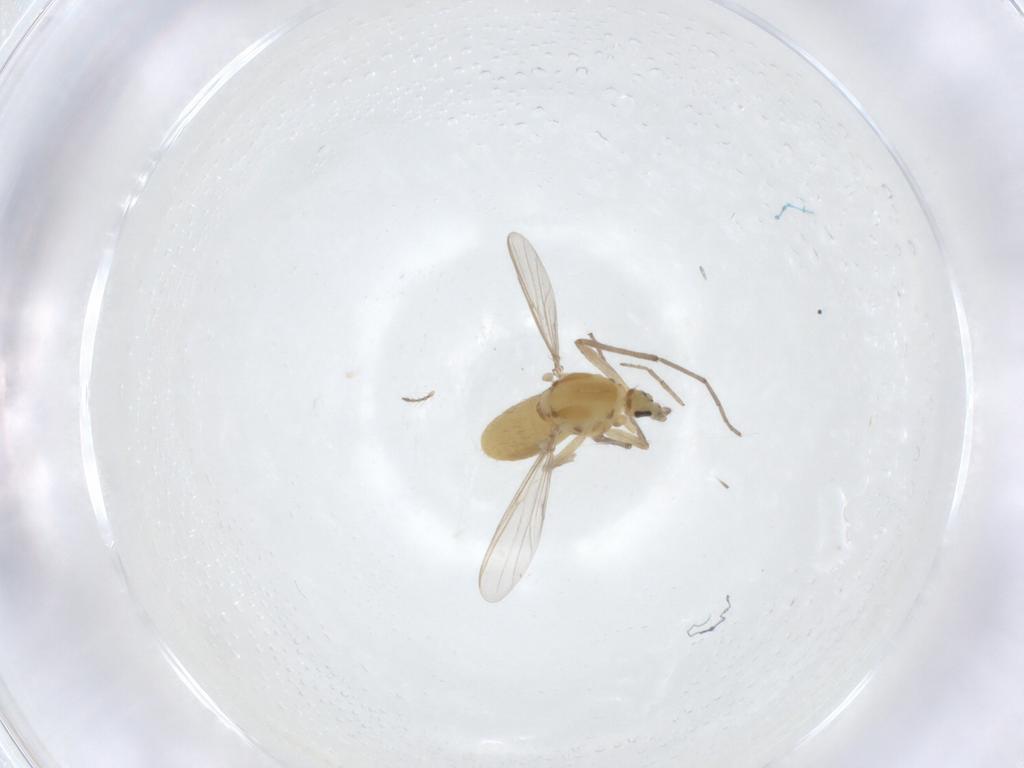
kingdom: Animalia
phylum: Arthropoda
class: Insecta
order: Diptera
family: Chironomidae
